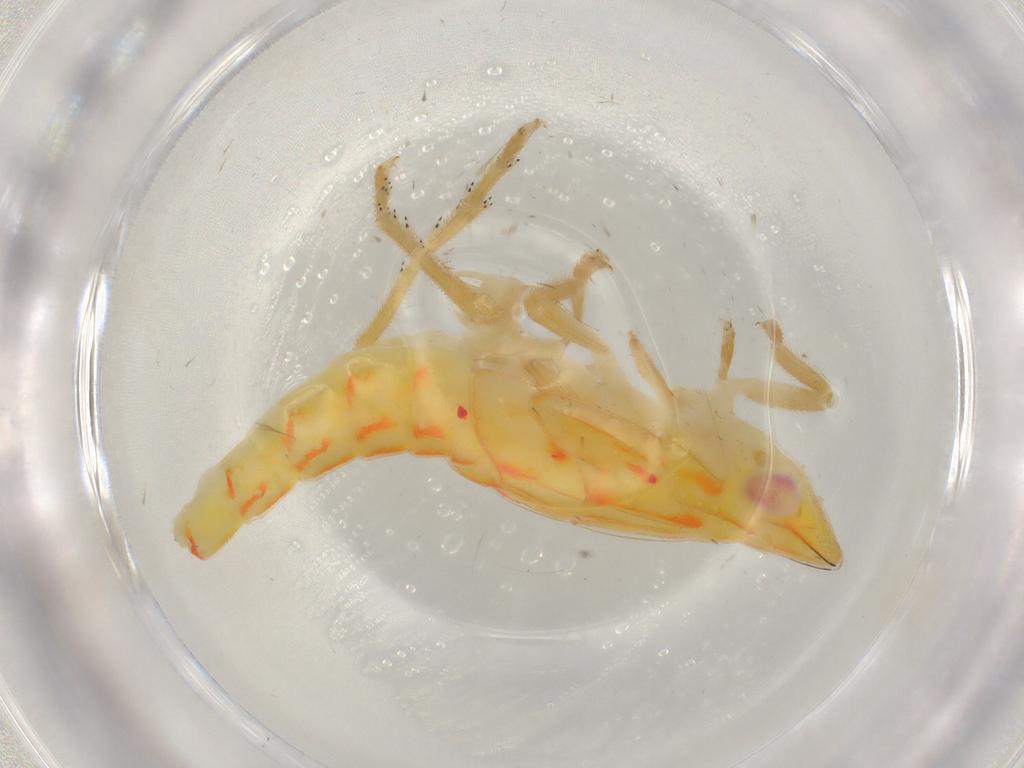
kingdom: Animalia
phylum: Arthropoda
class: Insecta
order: Hemiptera
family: Tropiduchidae
